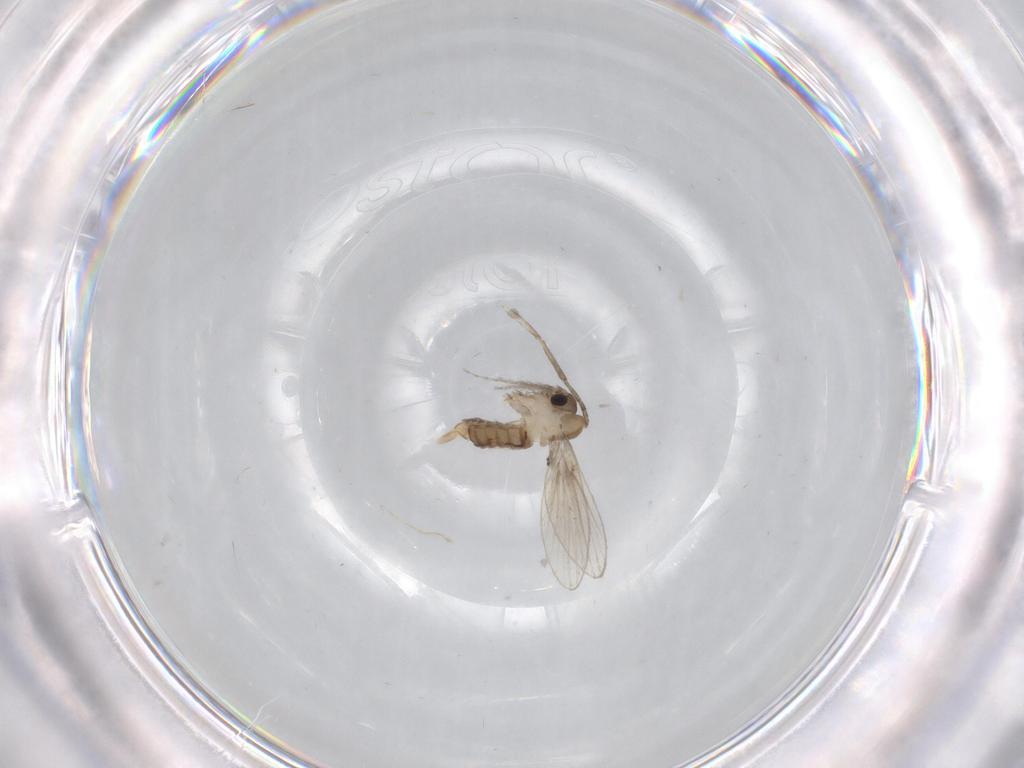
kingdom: Animalia
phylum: Arthropoda
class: Insecta
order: Diptera
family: Psychodidae
